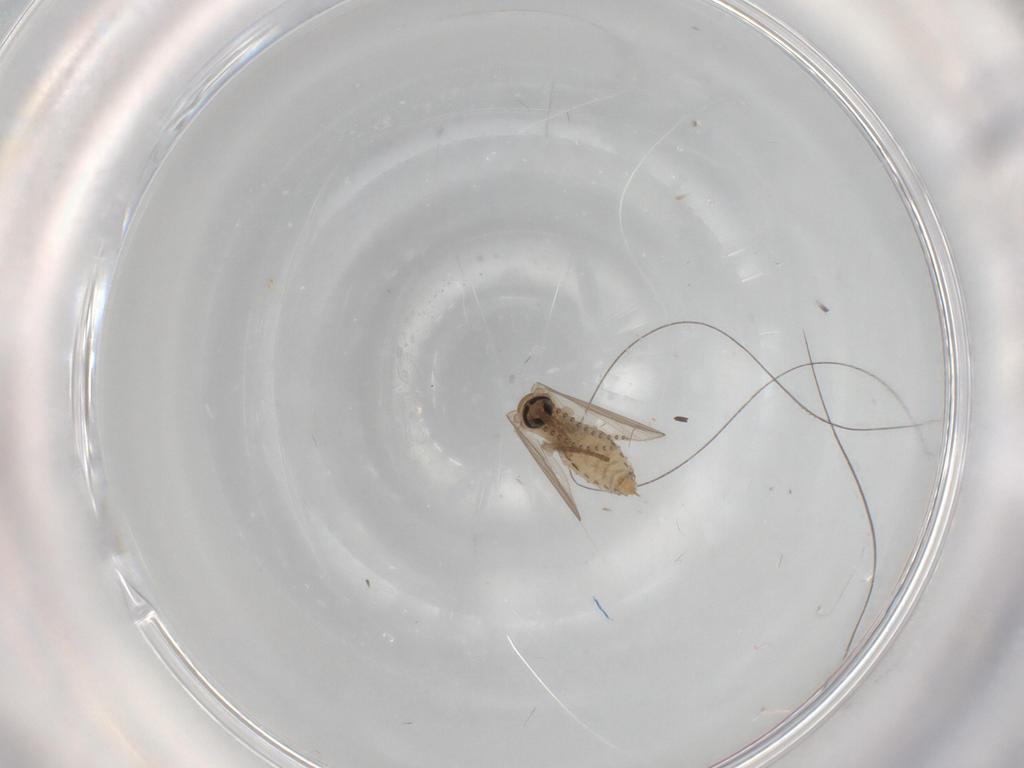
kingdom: Animalia
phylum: Arthropoda
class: Insecta
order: Diptera
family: Psychodidae
